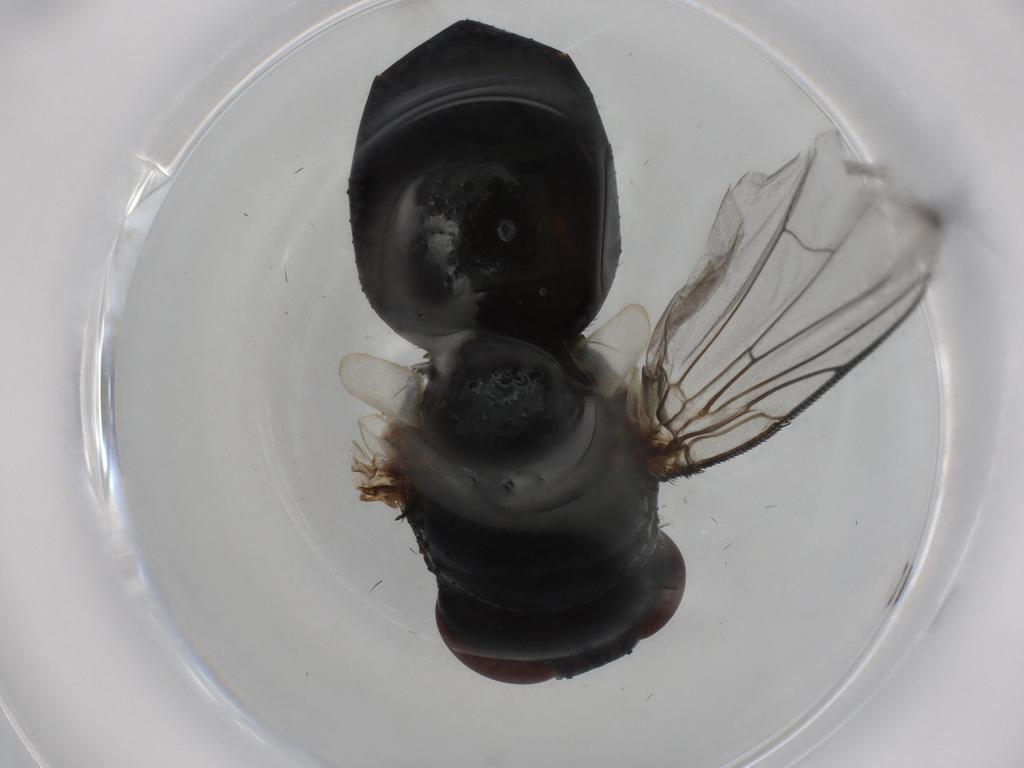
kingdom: Animalia
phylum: Arthropoda
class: Insecta
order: Diptera
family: Tachinidae
